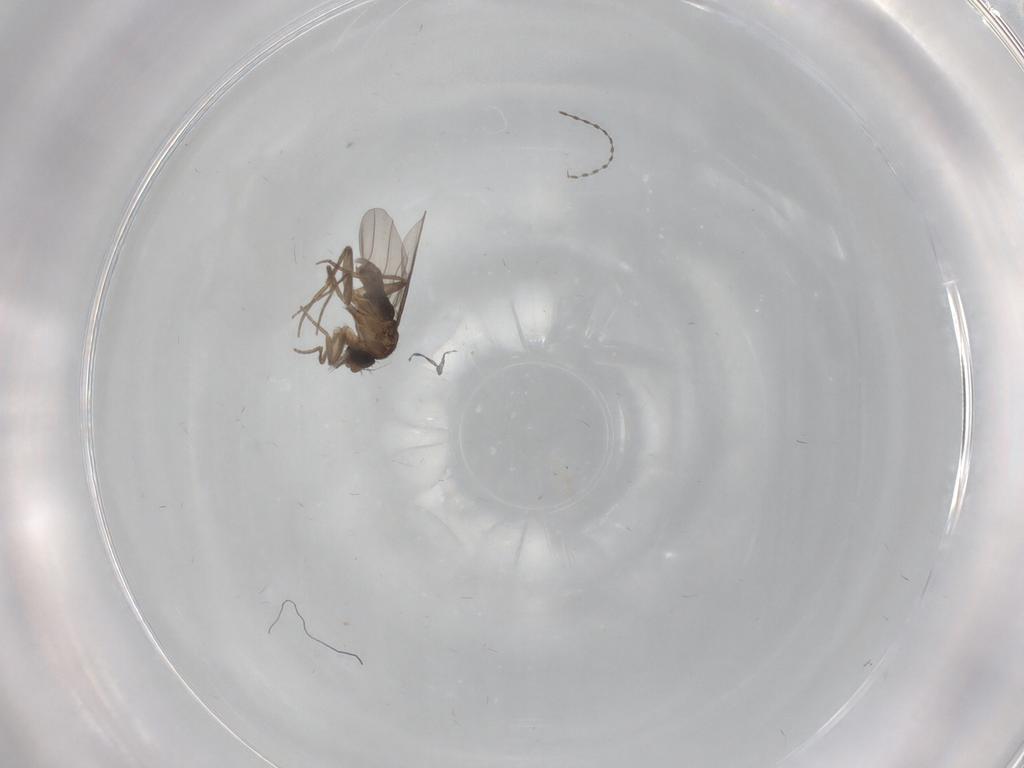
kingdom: Animalia
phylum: Arthropoda
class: Insecta
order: Diptera
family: Phoridae
